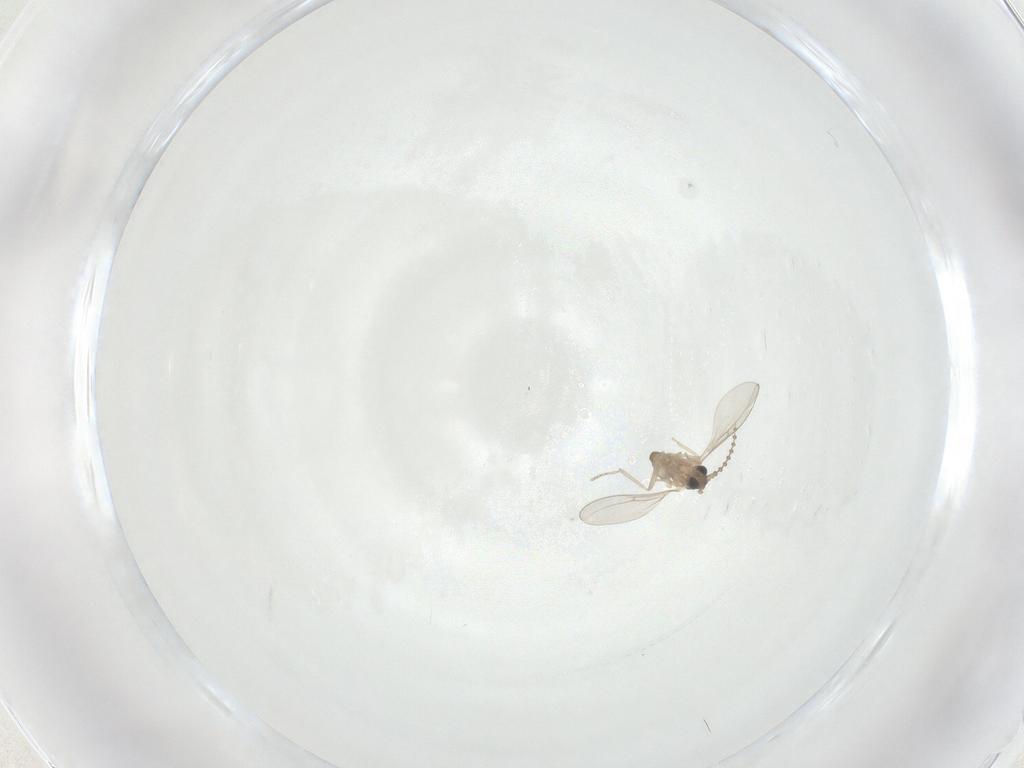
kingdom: Animalia
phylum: Arthropoda
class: Insecta
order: Diptera
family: Cecidomyiidae
